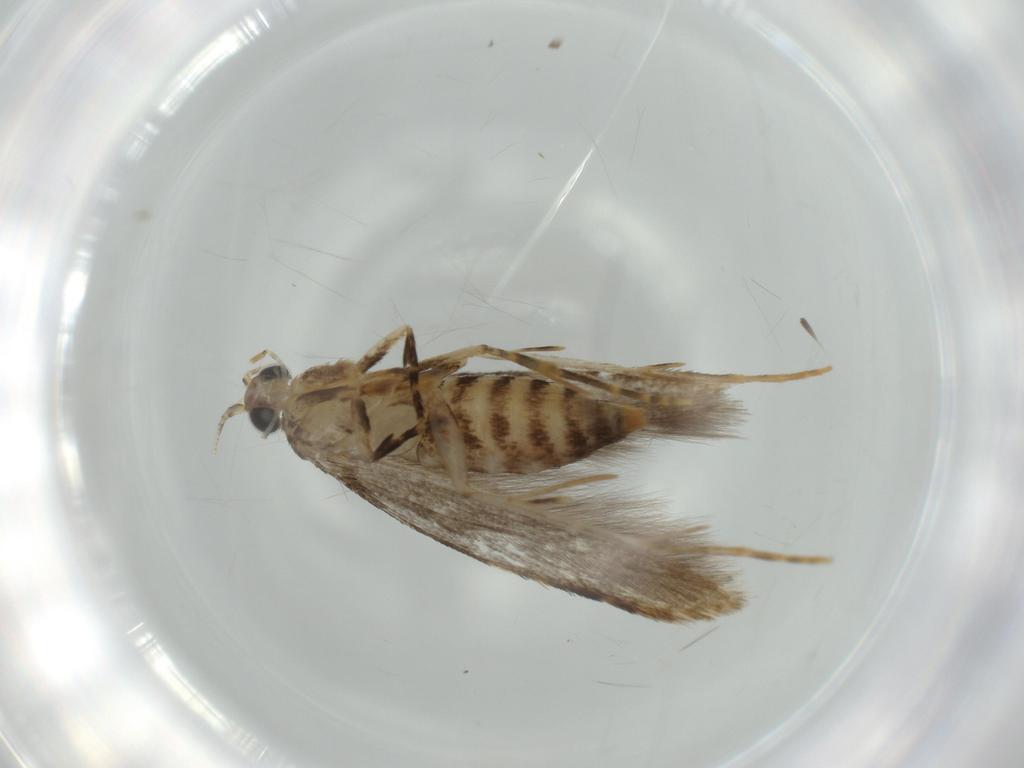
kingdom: Animalia
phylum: Arthropoda
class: Insecta
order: Lepidoptera
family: Tineidae
